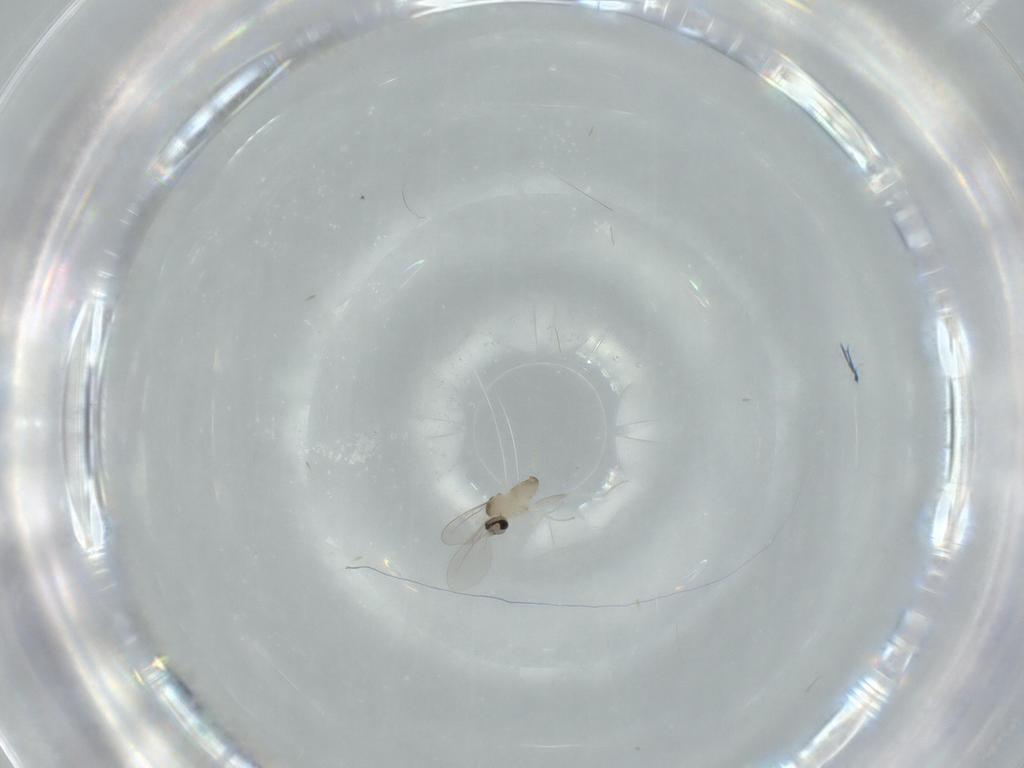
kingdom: Animalia
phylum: Arthropoda
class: Insecta
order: Diptera
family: Cecidomyiidae
